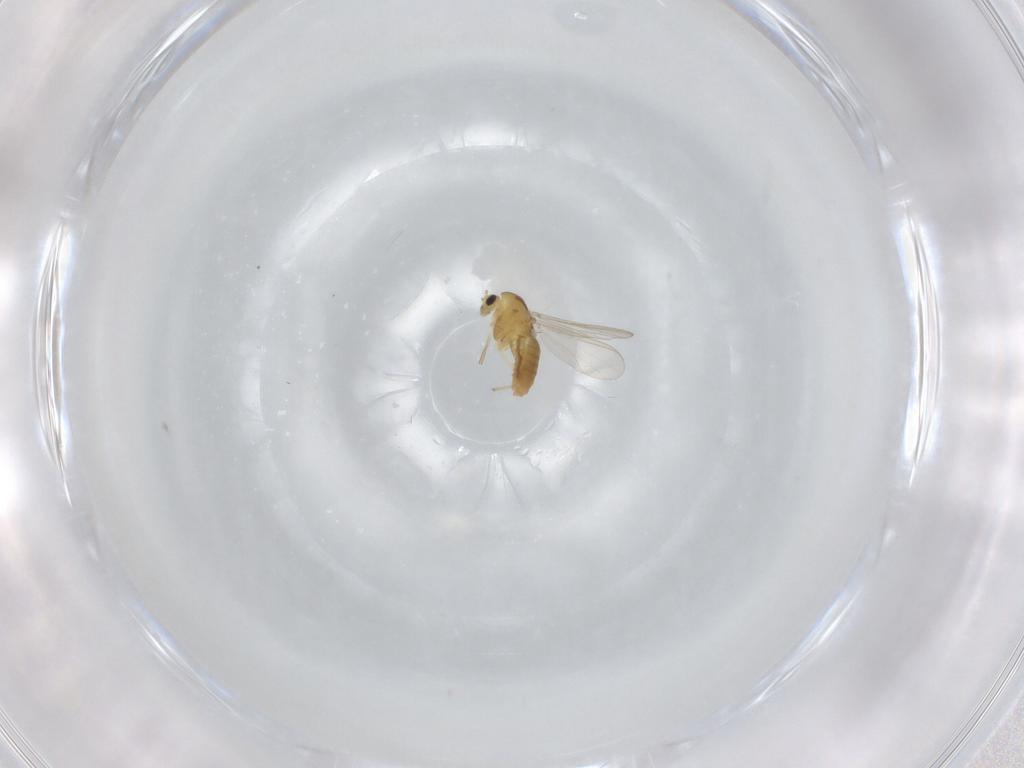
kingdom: Animalia
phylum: Arthropoda
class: Insecta
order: Diptera
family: Chironomidae
